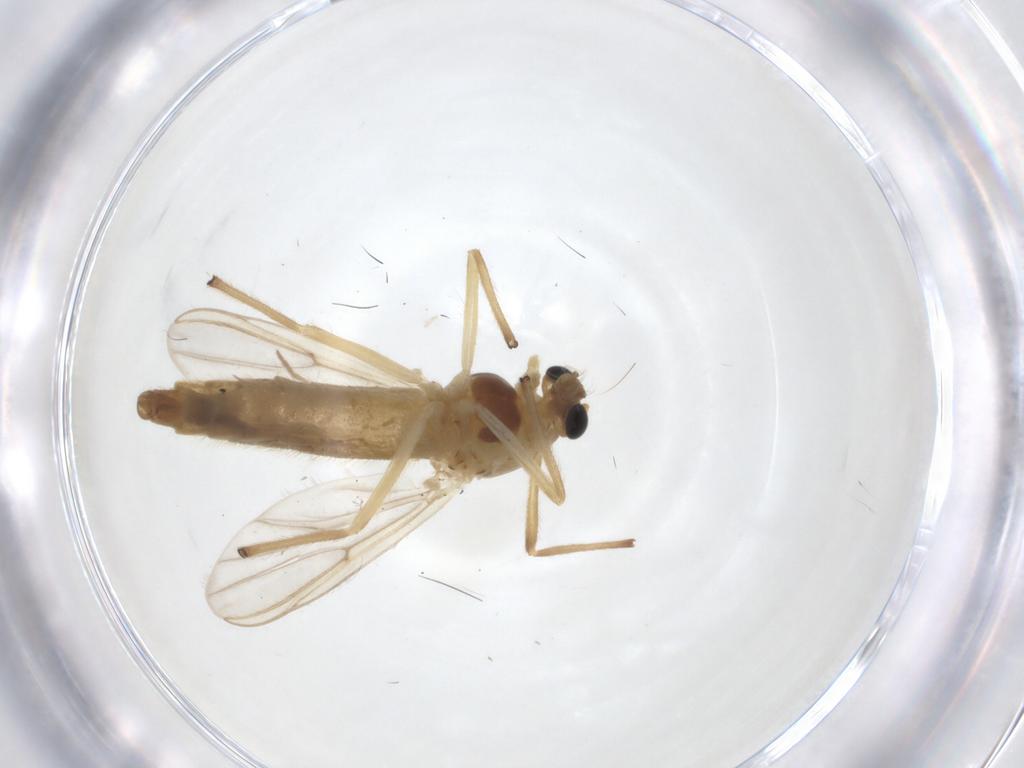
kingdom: Animalia
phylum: Arthropoda
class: Insecta
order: Diptera
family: Chironomidae
